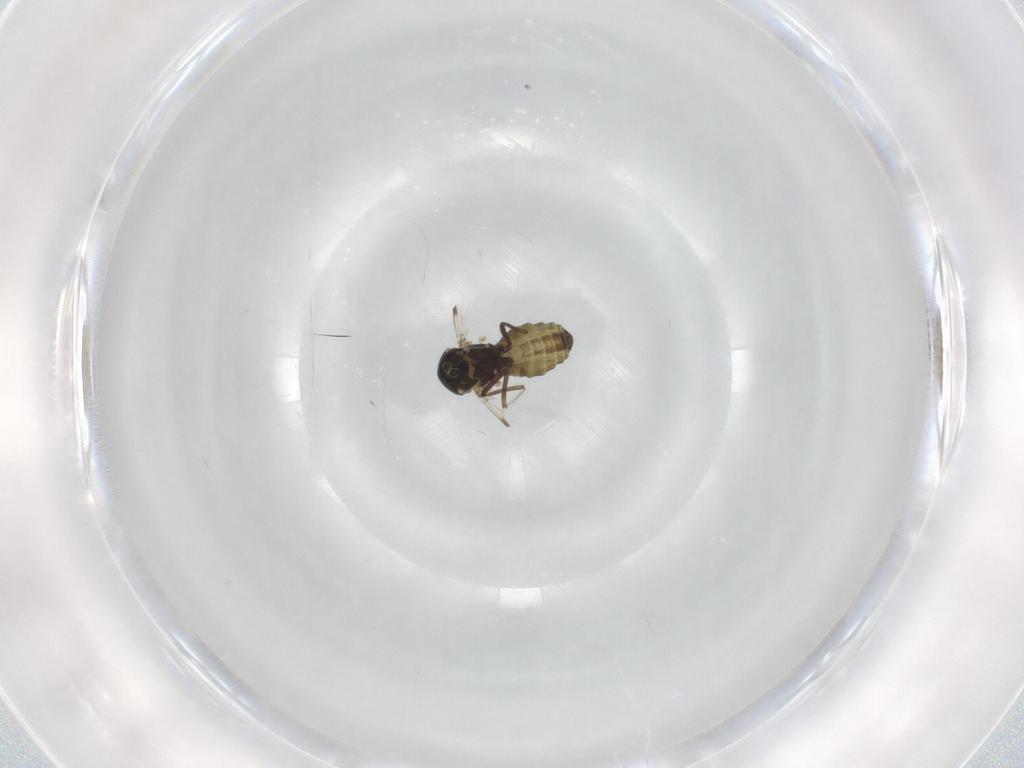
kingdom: Animalia
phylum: Arthropoda
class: Insecta
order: Diptera
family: Ceratopogonidae
